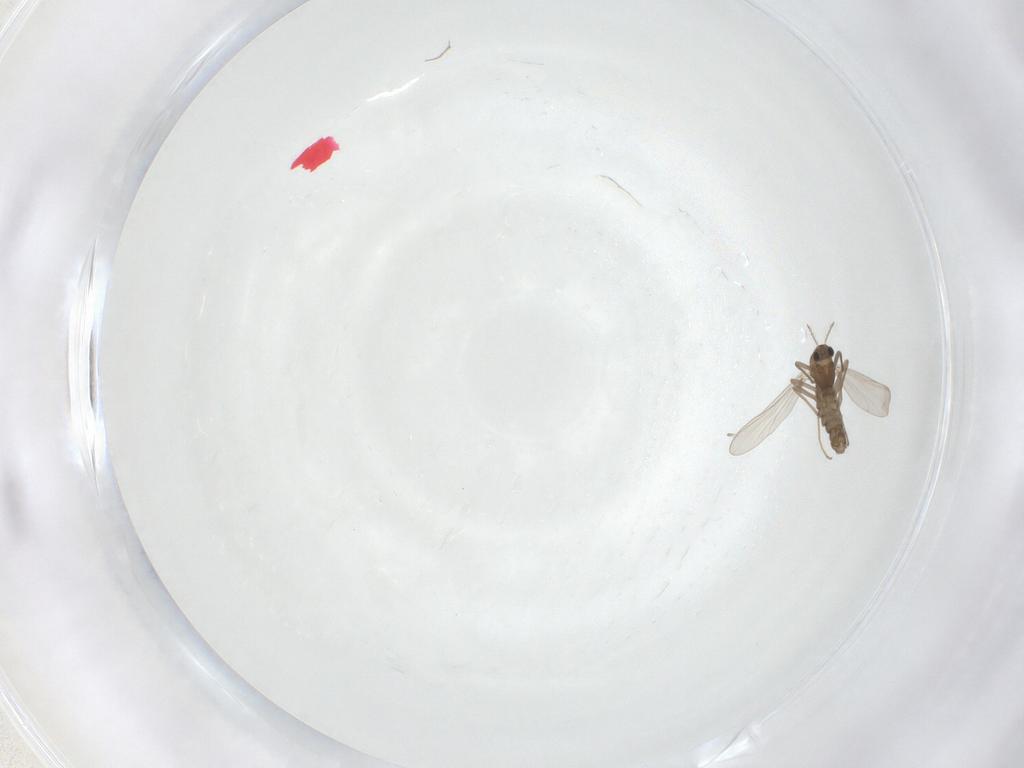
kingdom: Animalia
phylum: Arthropoda
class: Insecta
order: Diptera
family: Chironomidae
